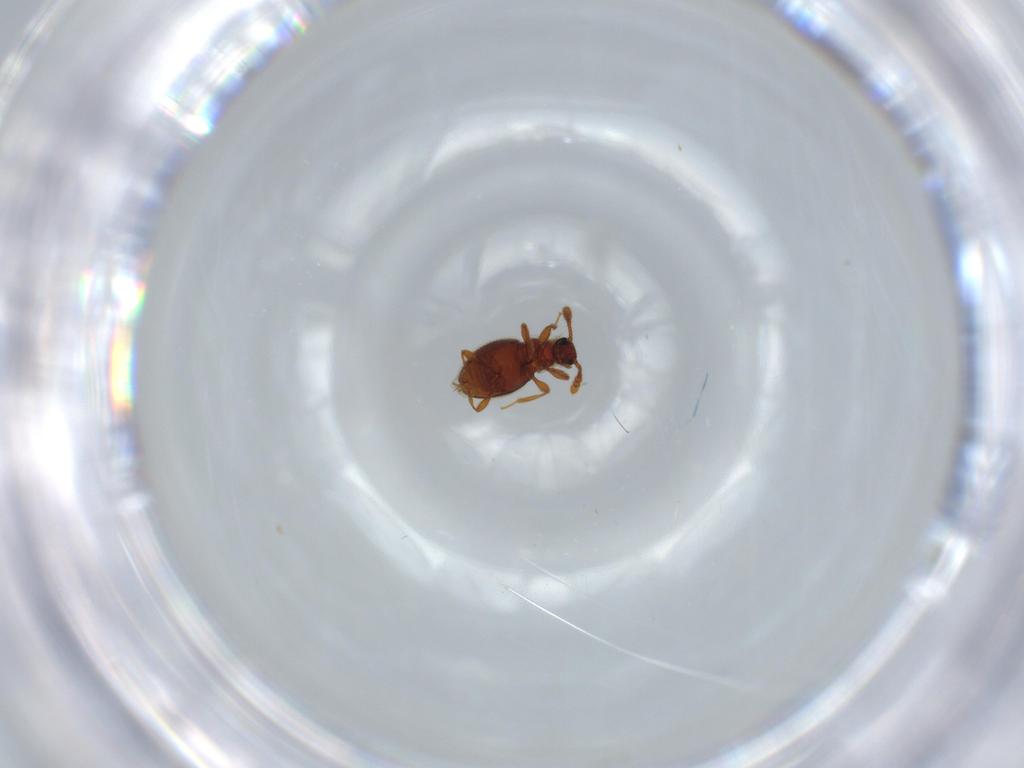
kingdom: Animalia
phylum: Arthropoda
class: Insecta
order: Coleoptera
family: Staphylinidae
